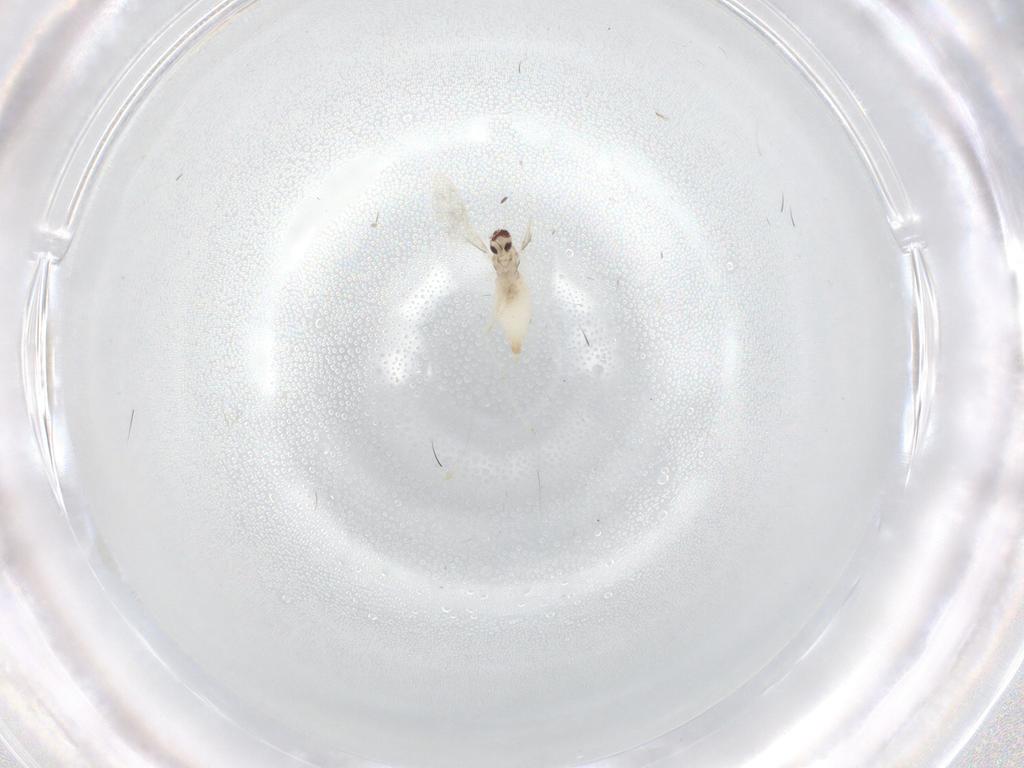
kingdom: Animalia
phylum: Arthropoda
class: Insecta
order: Diptera
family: Cecidomyiidae
